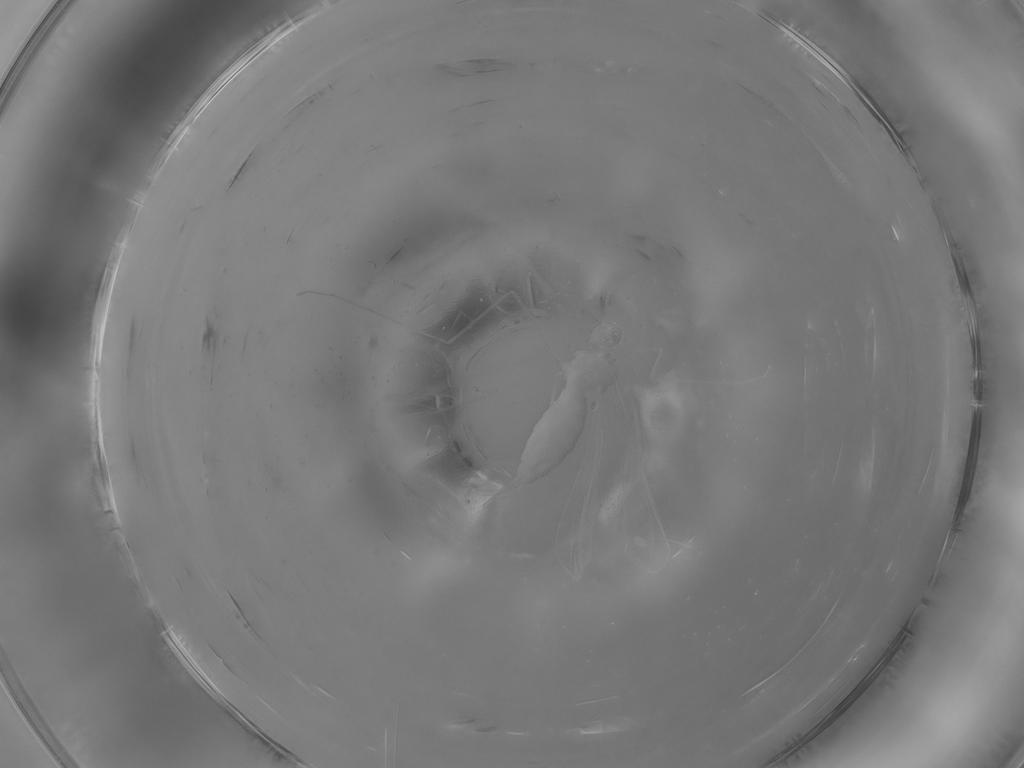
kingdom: Animalia
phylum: Arthropoda
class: Insecta
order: Diptera
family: Cecidomyiidae
